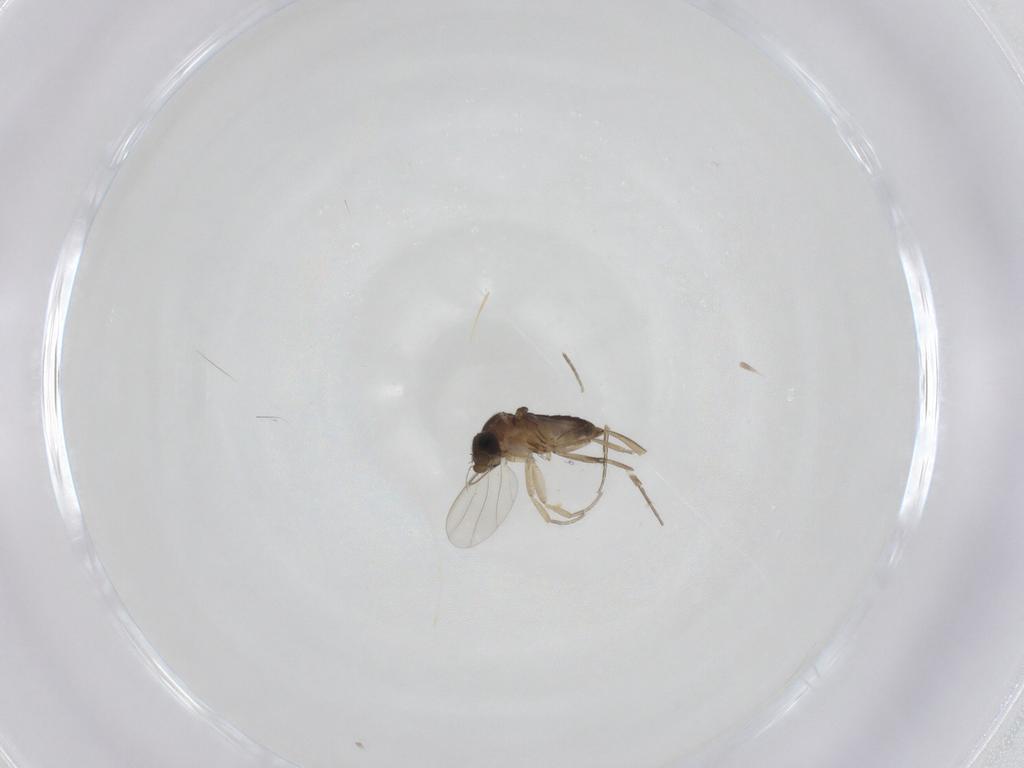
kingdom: Animalia
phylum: Arthropoda
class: Insecta
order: Diptera
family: Phoridae
